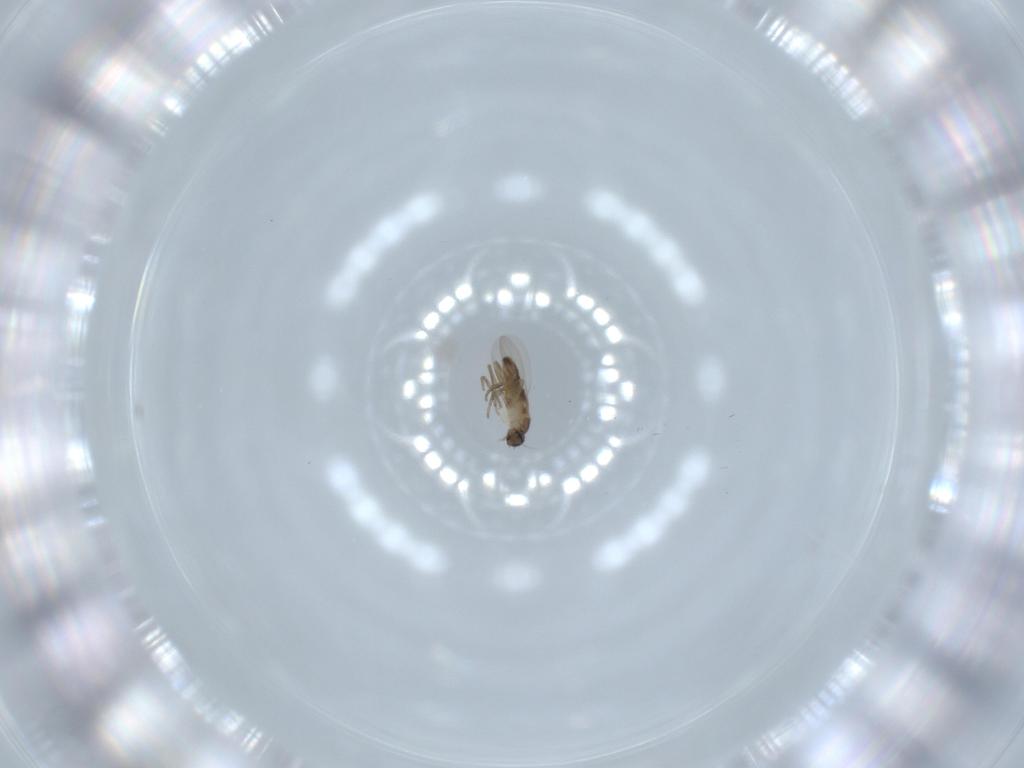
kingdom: Animalia
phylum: Arthropoda
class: Insecta
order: Diptera
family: Phoridae
